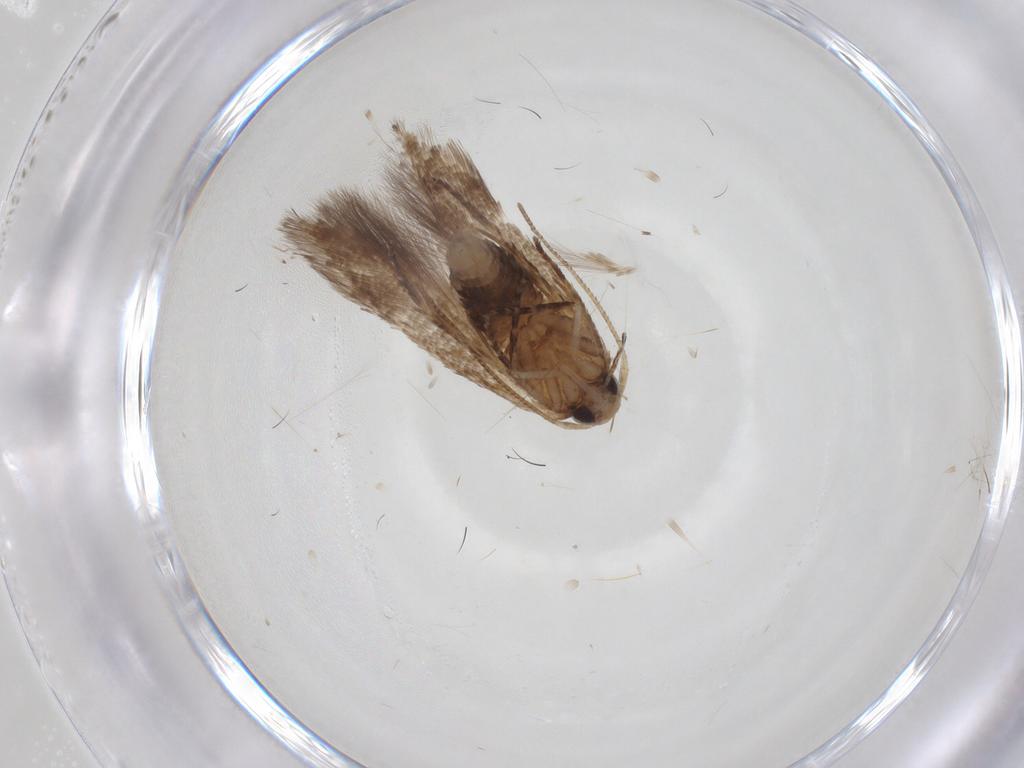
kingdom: Animalia
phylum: Arthropoda
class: Insecta
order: Lepidoptera
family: Cosmopterigidae
